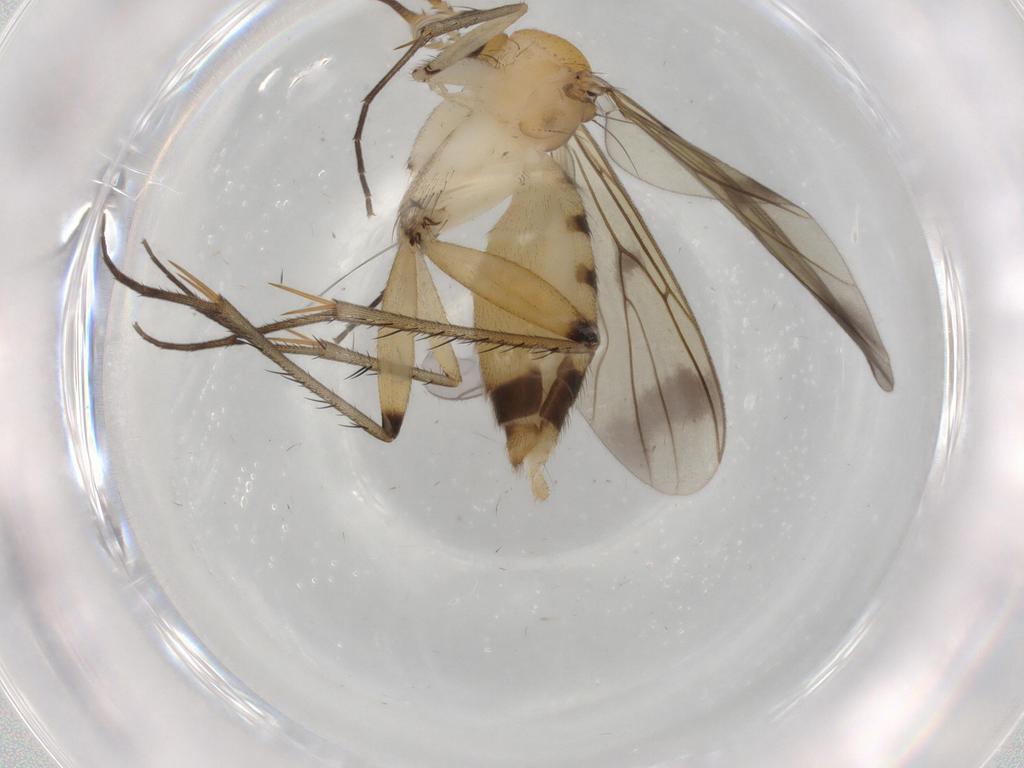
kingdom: Animalia
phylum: Arthropoda
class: Insecta
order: Diptera
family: Mycetophilidae
